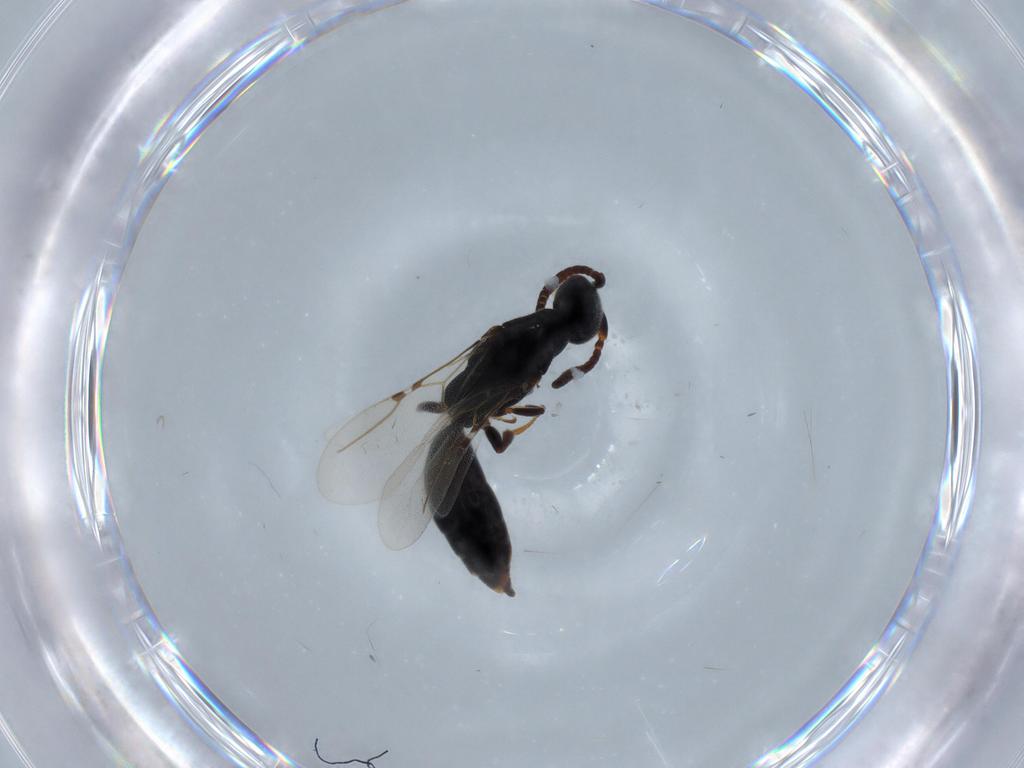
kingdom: Animalia
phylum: Arthropoda
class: Insecta
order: Hymenoptera
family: Bethylidae
